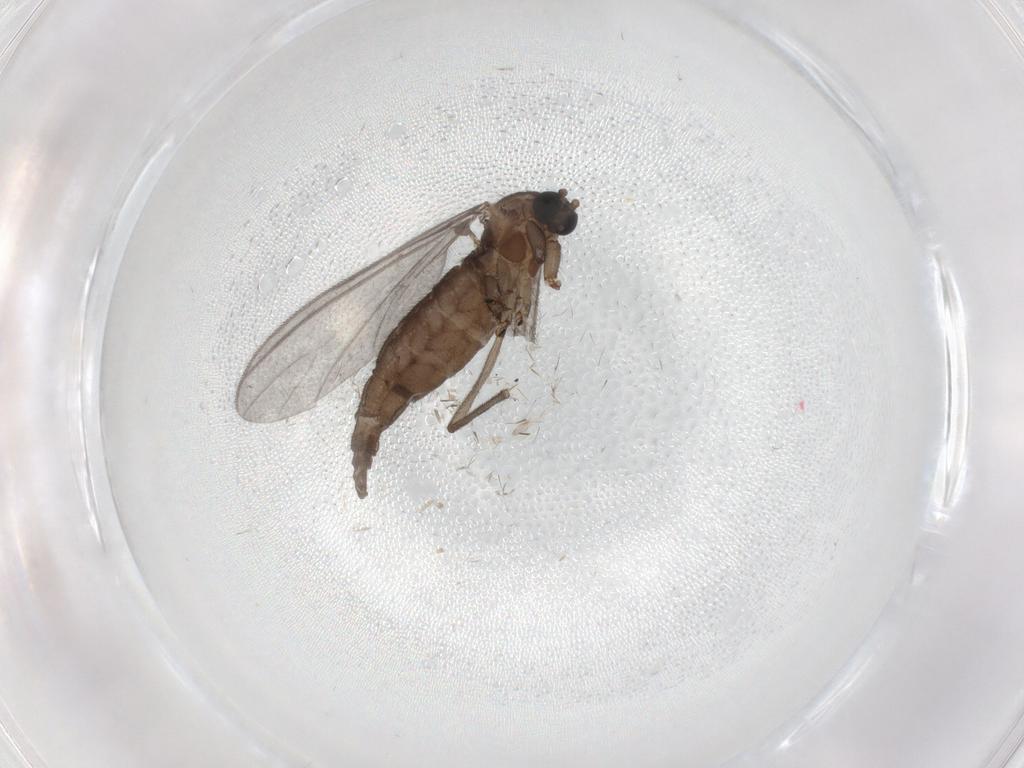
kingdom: Animalia
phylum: Arthropoda
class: Insecta
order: Diptera
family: Sciaridae
